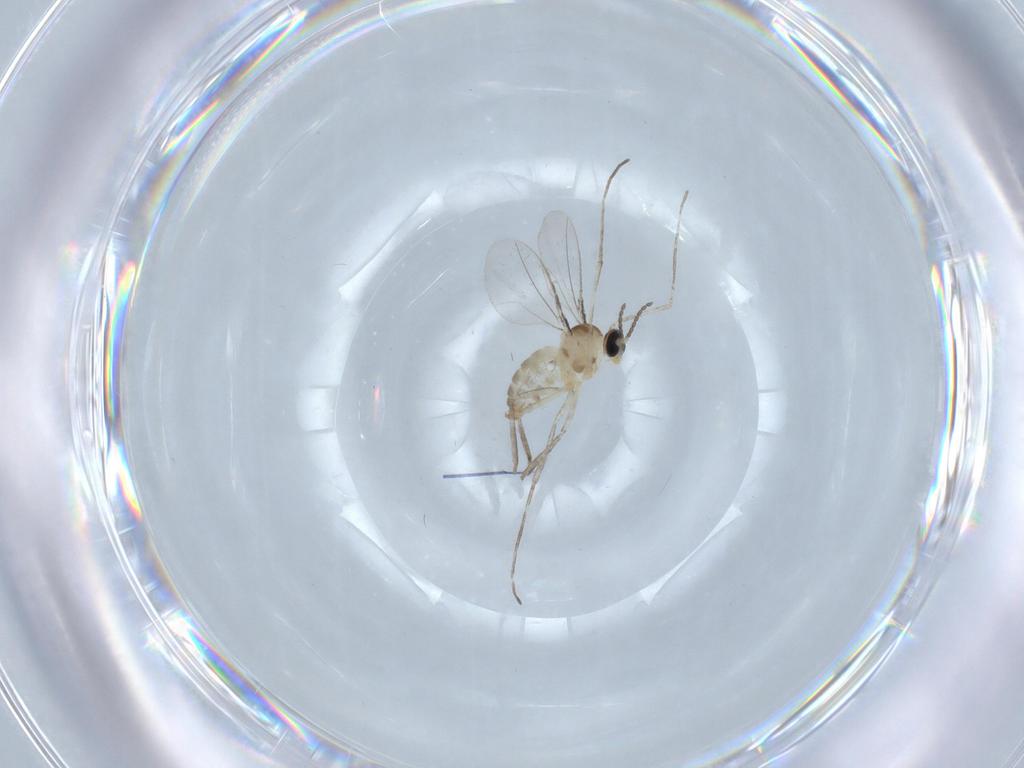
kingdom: Animalia
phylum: Arthropoda
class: Insecta
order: Diptera
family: Cecidomyiidae
